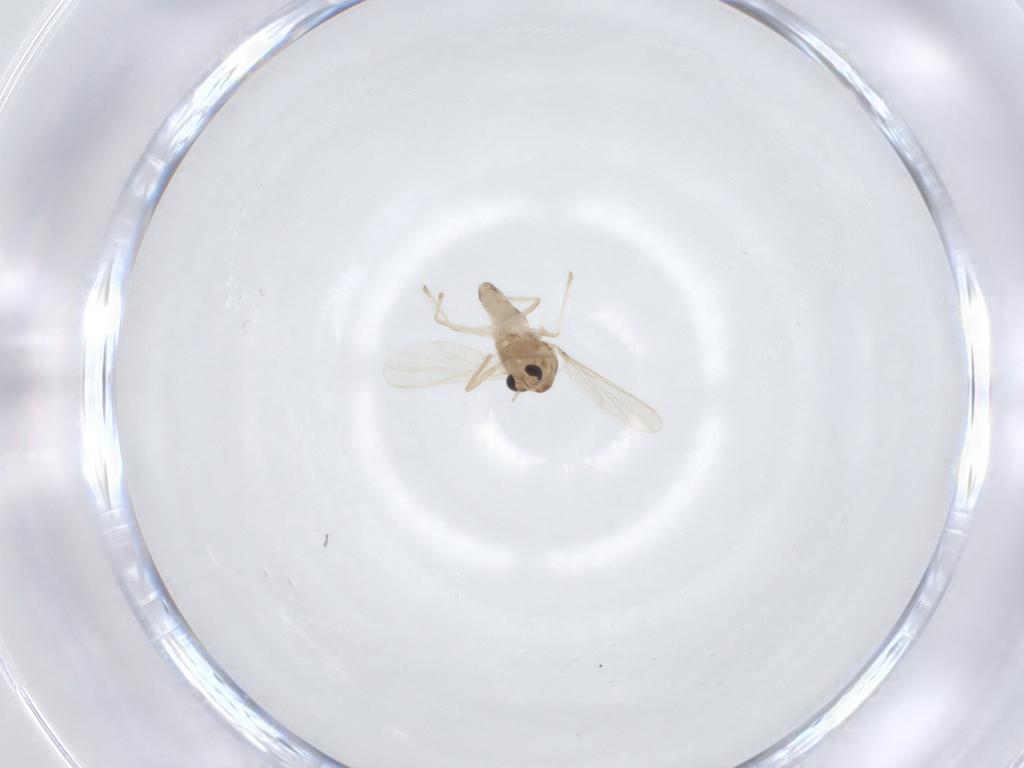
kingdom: Animalia
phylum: Arthropoda
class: Insecta
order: Diptera
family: Chironomidae
